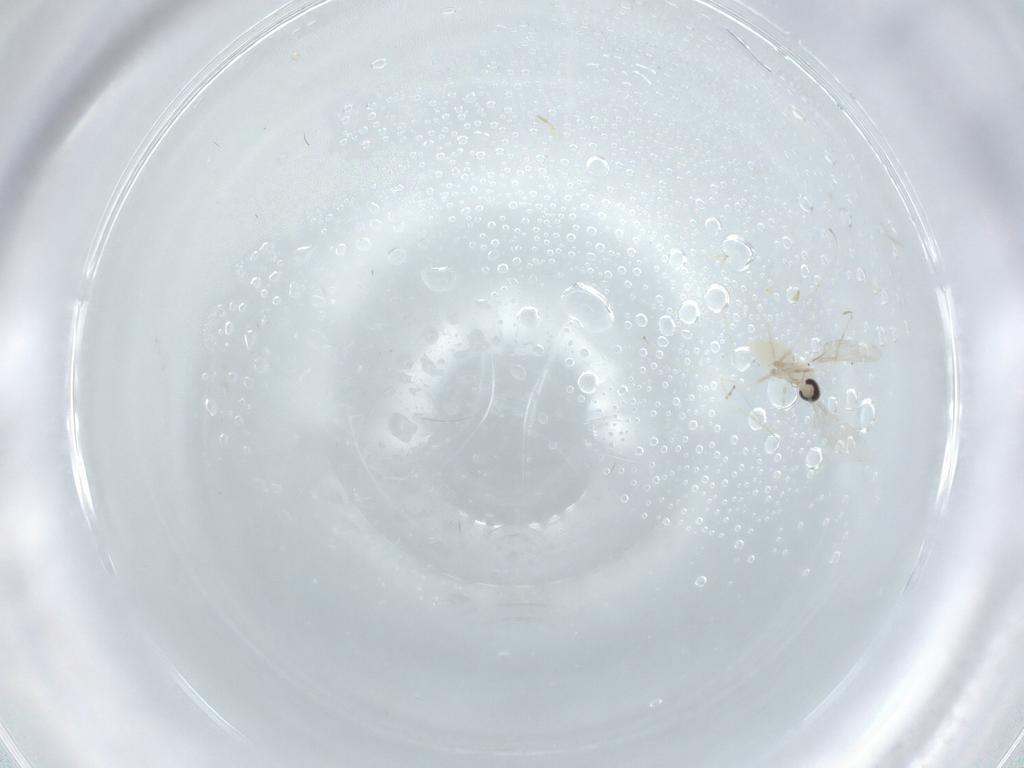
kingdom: Animalia
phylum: Arthropoda
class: Insecta
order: Diptera
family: Cecidomyiidae
